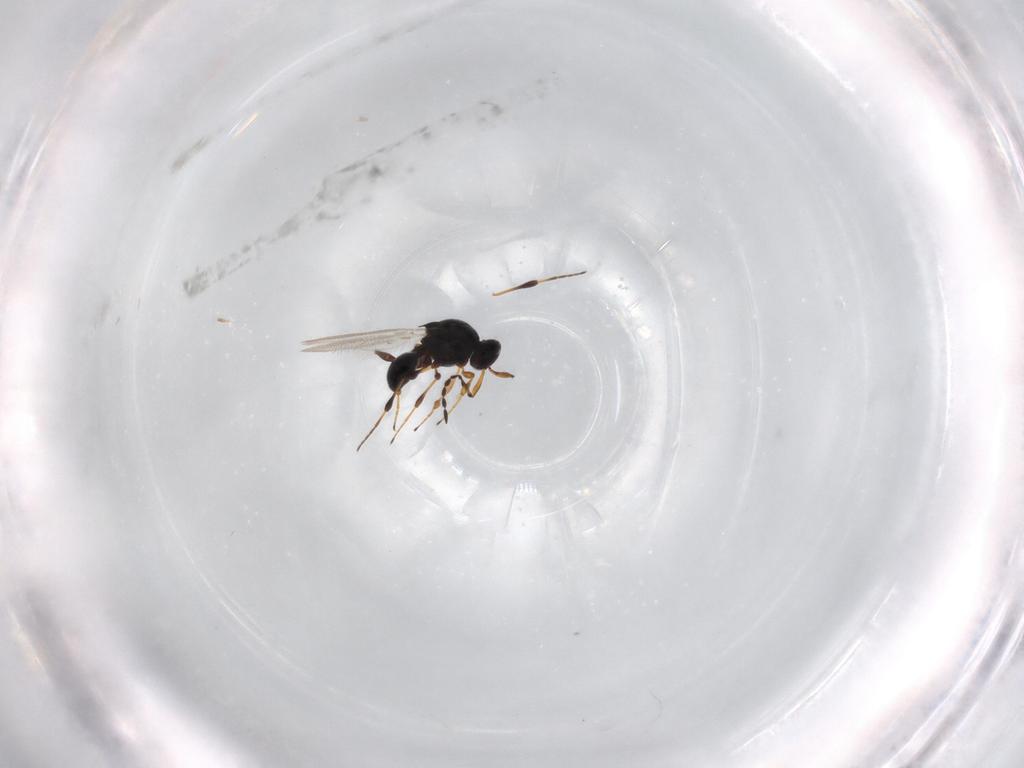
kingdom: Animalia
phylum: Arthropoda
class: Insecta
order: Hymenoptera
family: Platygastridae
